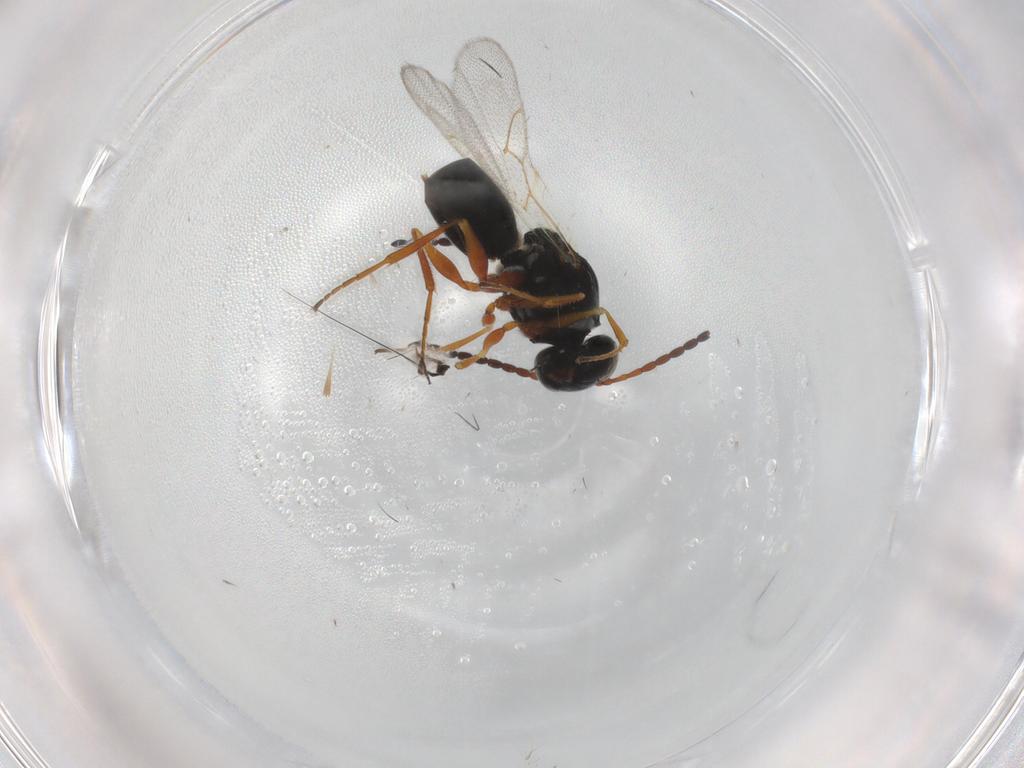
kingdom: Animalia
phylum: Arthropoda
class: Insecta
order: Hymenoptera
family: Figitidae
